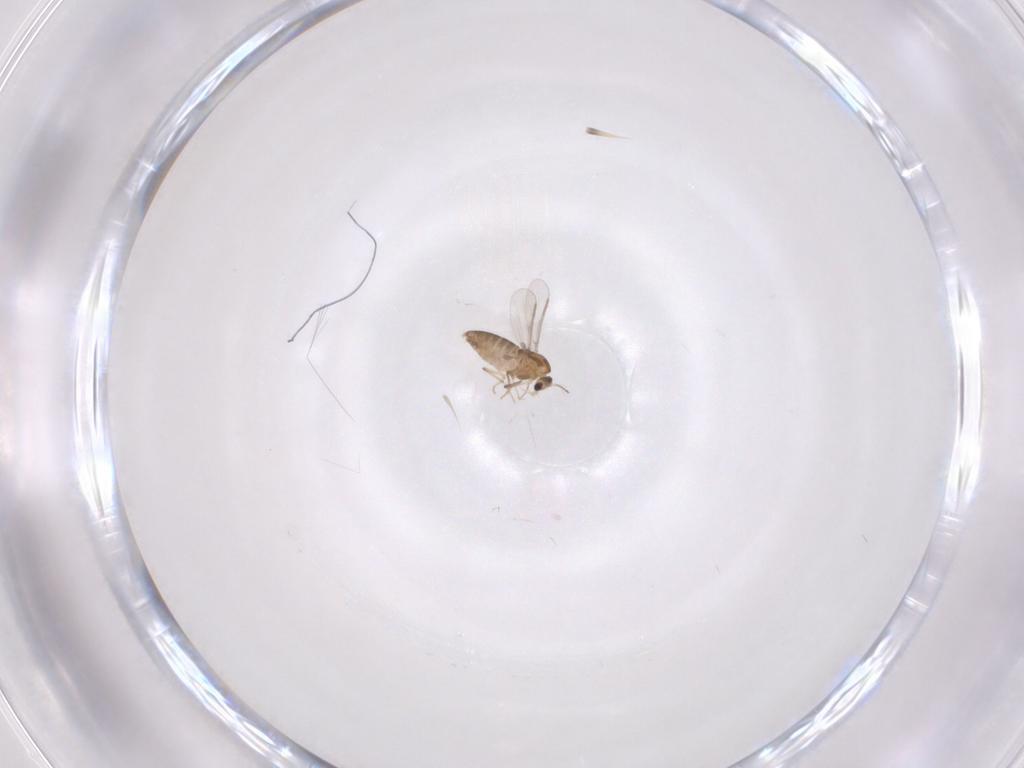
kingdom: Animalia
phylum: Arthropoda
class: Insecta
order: Diptera
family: Chironomidae
